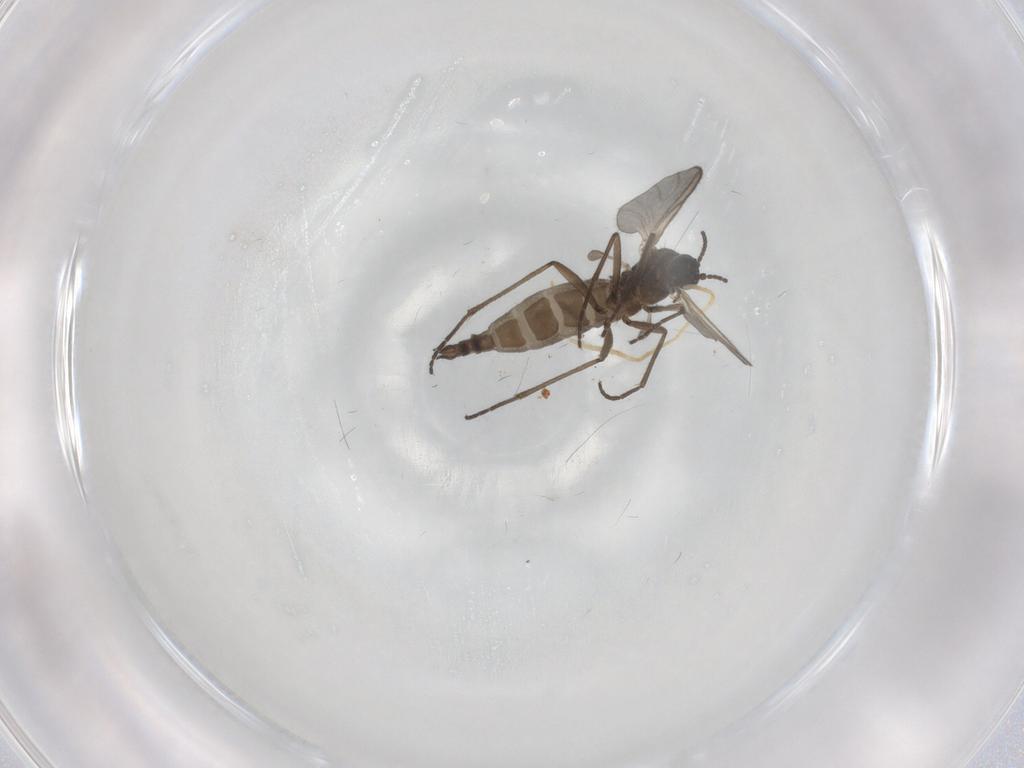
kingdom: Animalia
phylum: Arthropoda
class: Insecta
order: Diptera
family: Sciaridae
